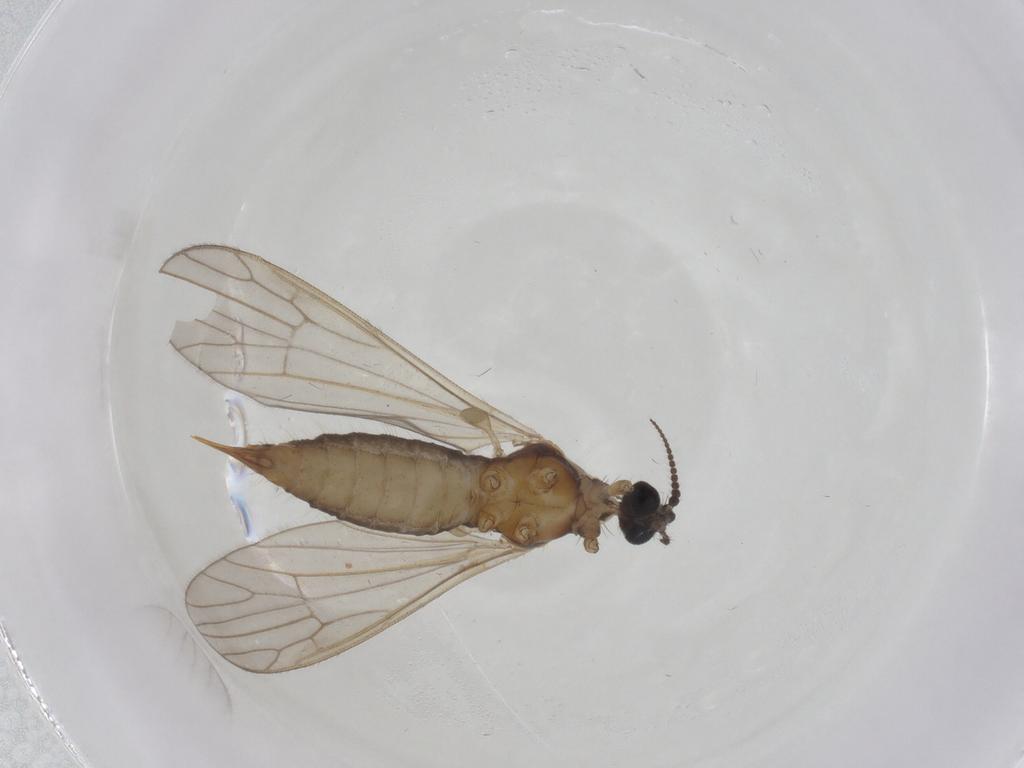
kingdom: Animalia
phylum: Arthropoda
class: Insecta
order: Diptera
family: Agromyzidae
